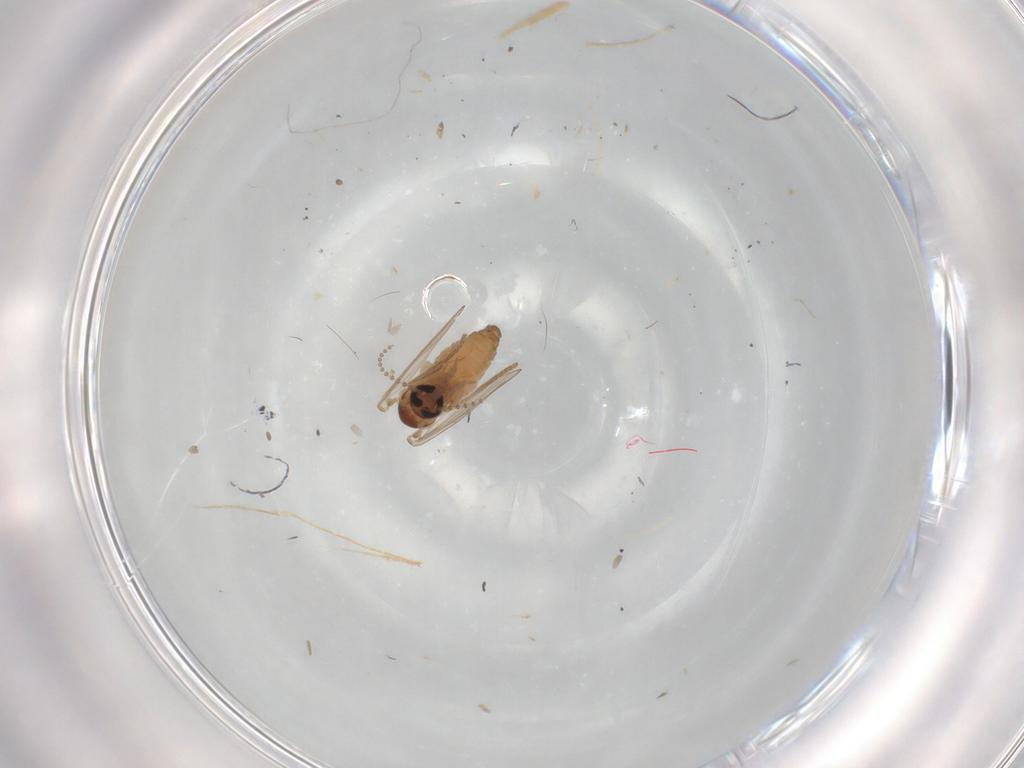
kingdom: Animalia
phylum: Arthropoda
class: Insecta
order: Diptera
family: Psychodidae
